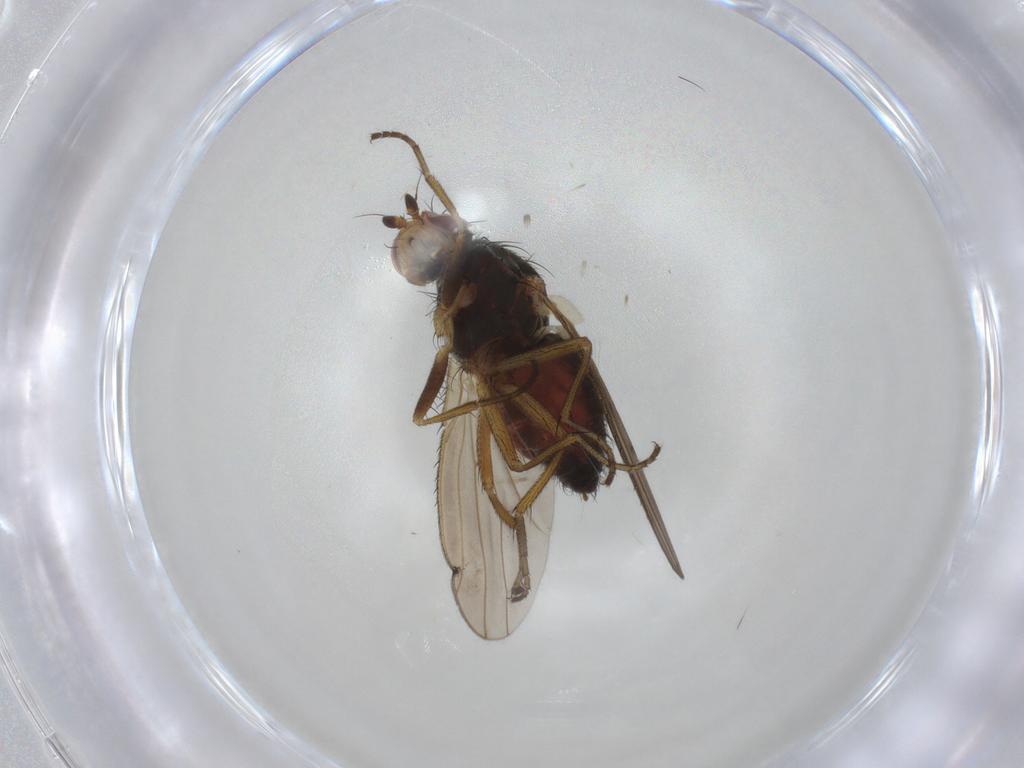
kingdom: Animalia
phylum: Arthropoda
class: Insecta
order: Diptera
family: Heleomyzidae
